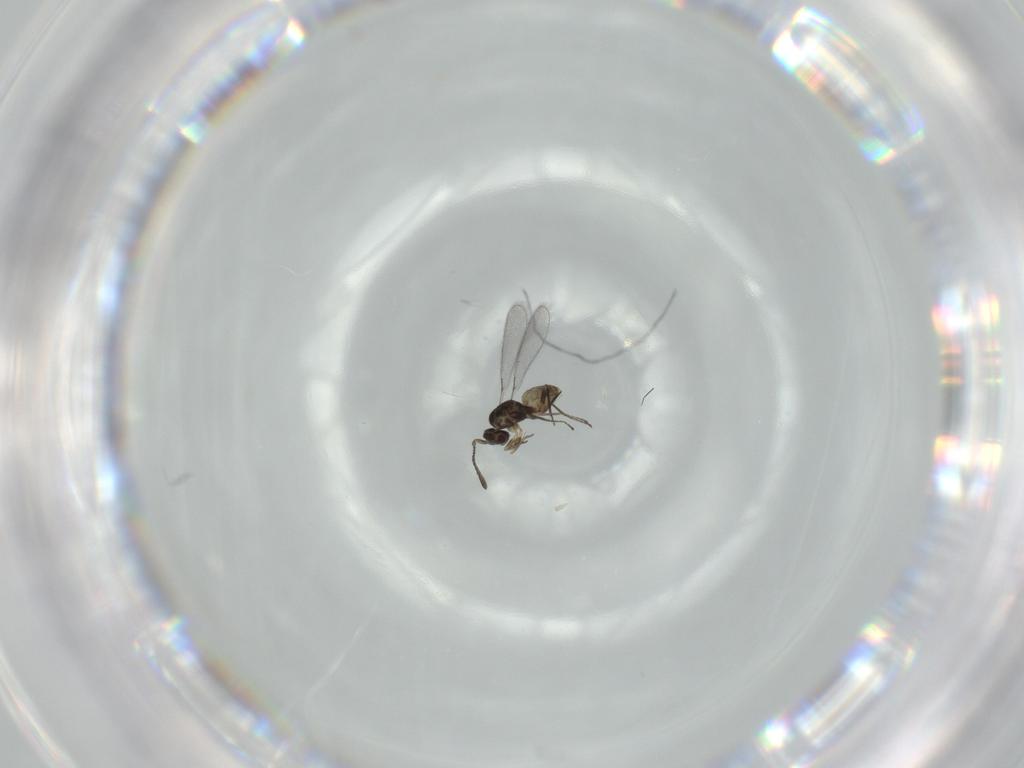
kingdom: Animalia
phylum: Arthropoda
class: Insecta
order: Hymenoptera
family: Mymaridae
